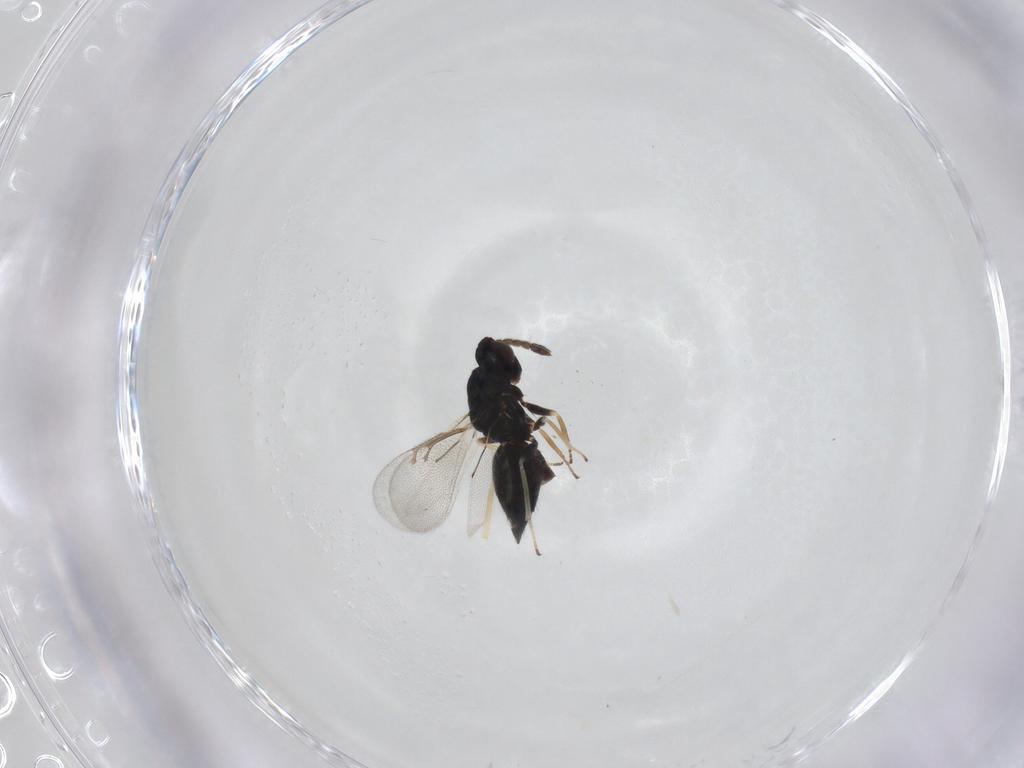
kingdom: Animalia
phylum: Arthropoda
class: Insecta
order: Hymenoptera
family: Eulophidae
